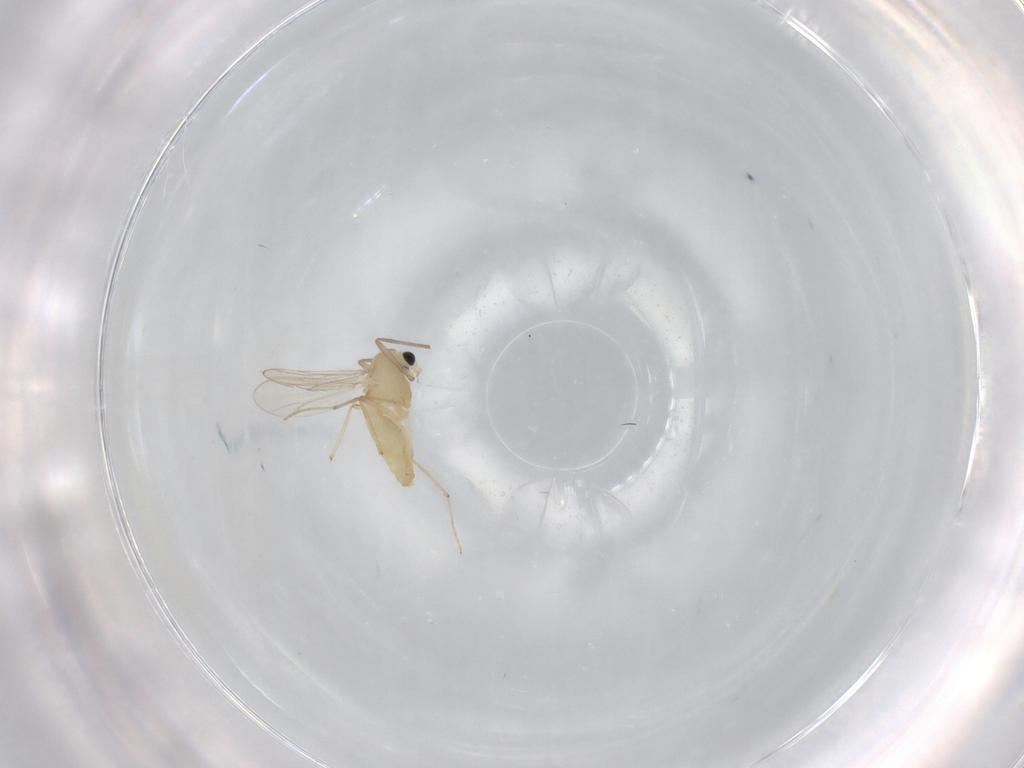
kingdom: Animalia
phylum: Arthropoda
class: Insecta
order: Diptera
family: Chironomidae
